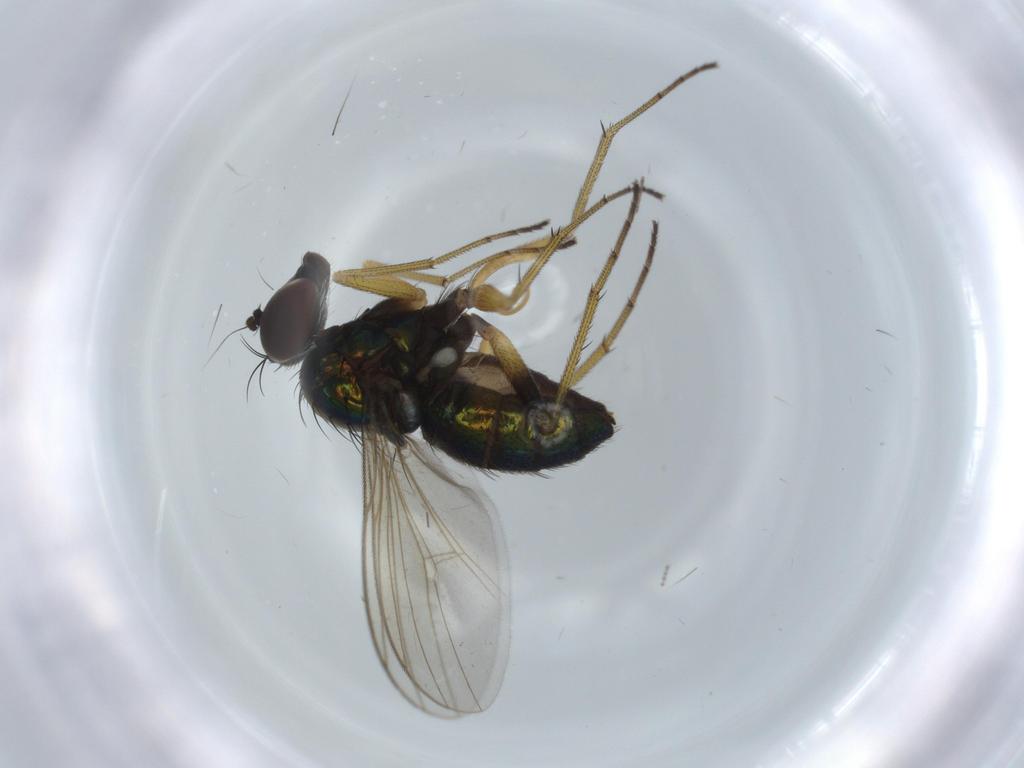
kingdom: Animalia
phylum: Arthropoda
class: Insecta
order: Diptera
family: Dolichopodidae
